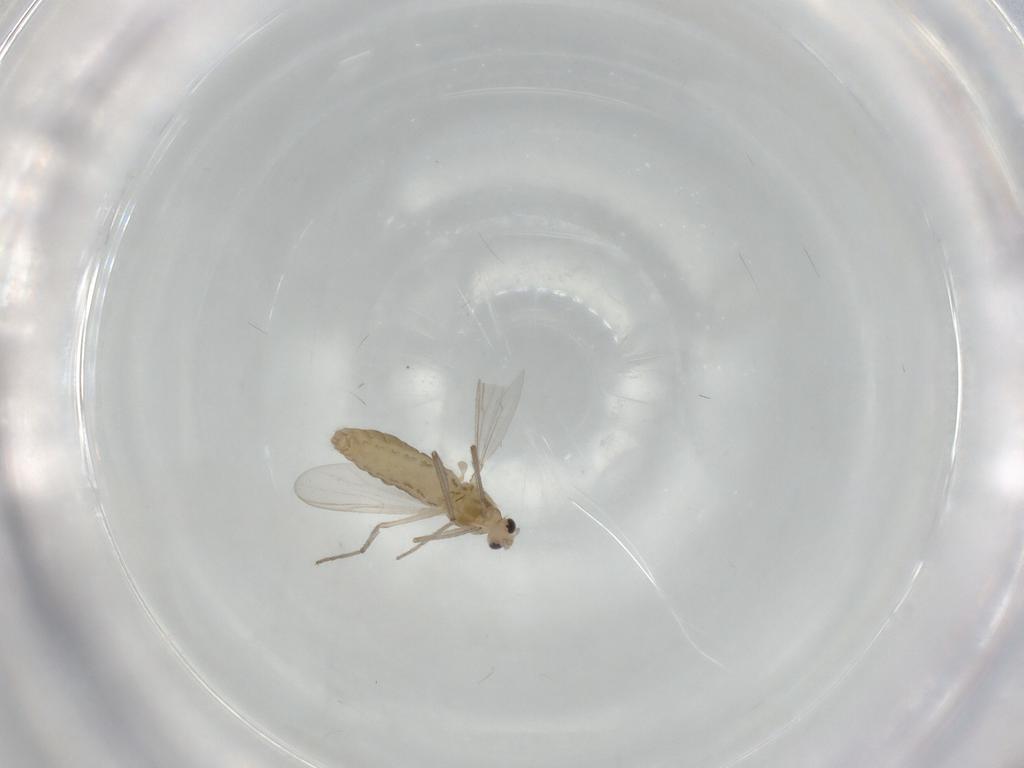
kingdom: Animalia
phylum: Arthropoda
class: Insecta
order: Diptera
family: Chironomidae
